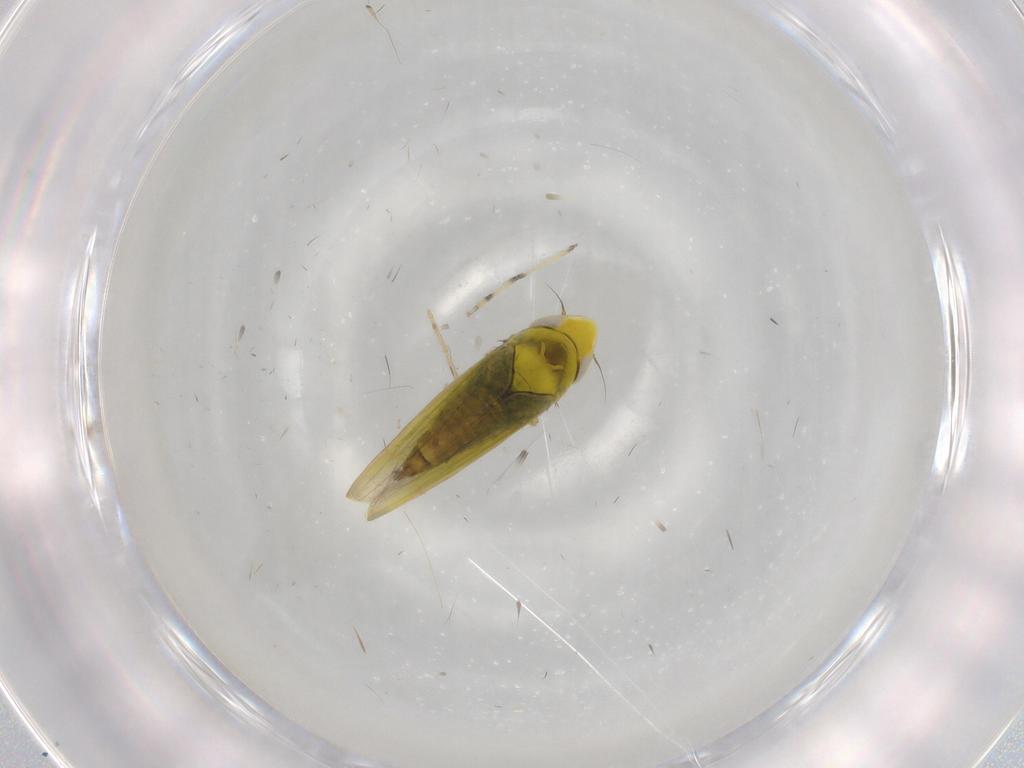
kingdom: Animalia
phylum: Arthropoda
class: Insecta
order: Hemiptera
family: Cicadellidae
